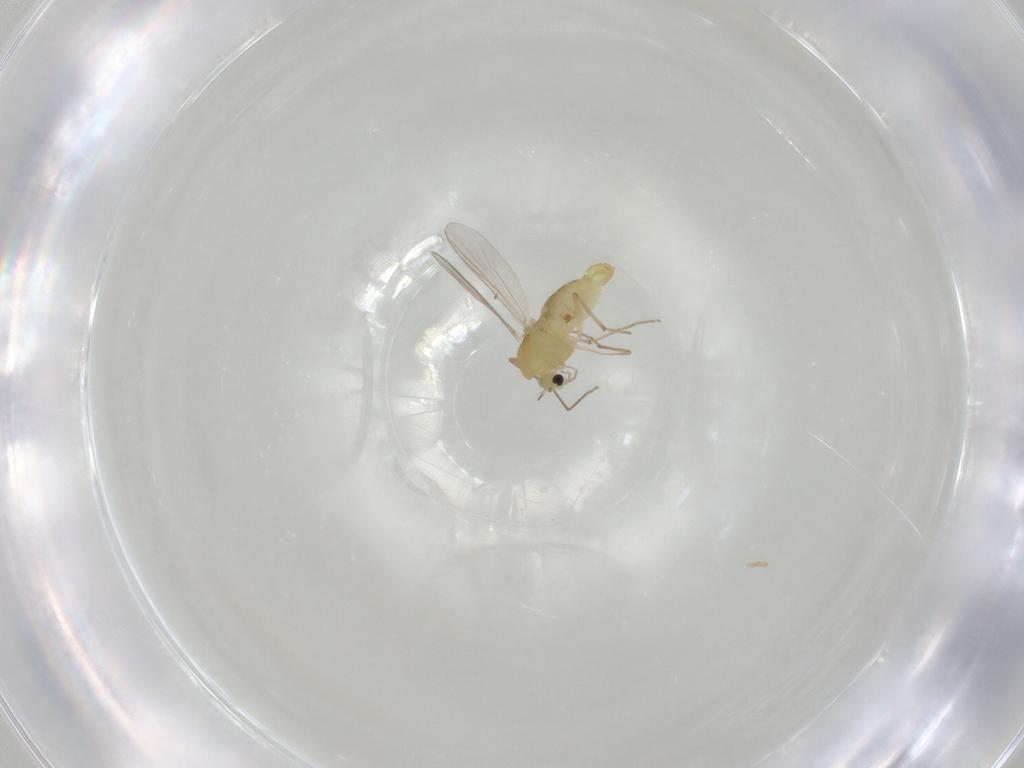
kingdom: Animalia
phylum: Arthropoda
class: Insecta
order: Diptera
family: Chironomidae
